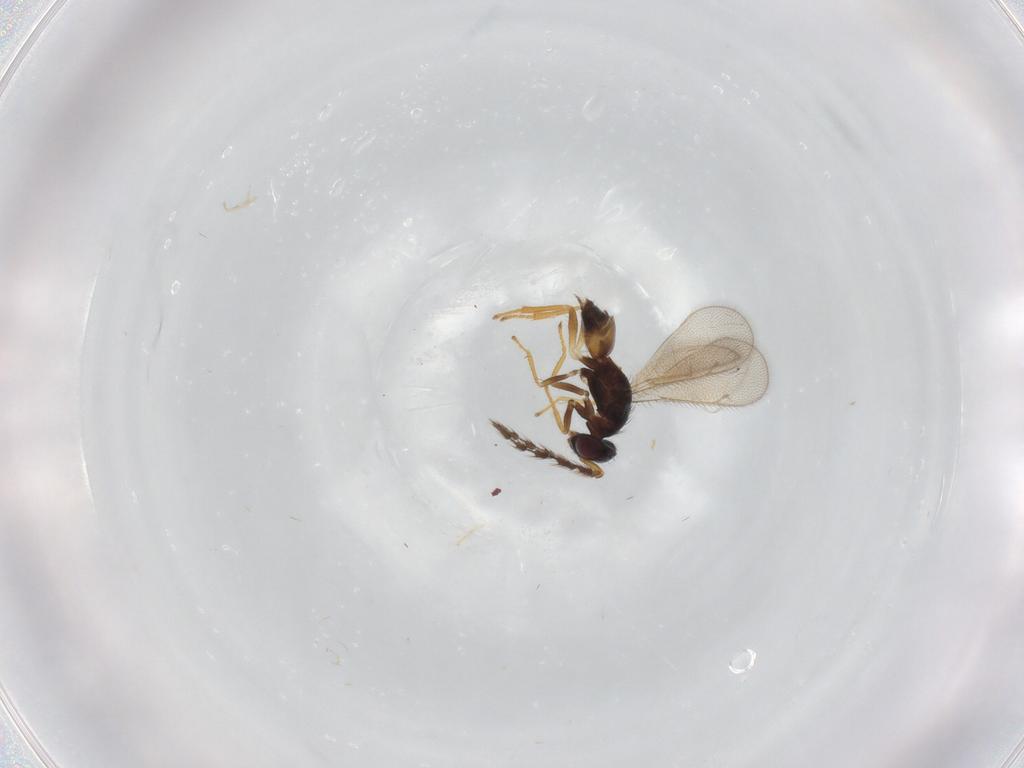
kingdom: Animalia
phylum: Arthropoda
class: Insecta
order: Hymenoptera
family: Eulophidae
